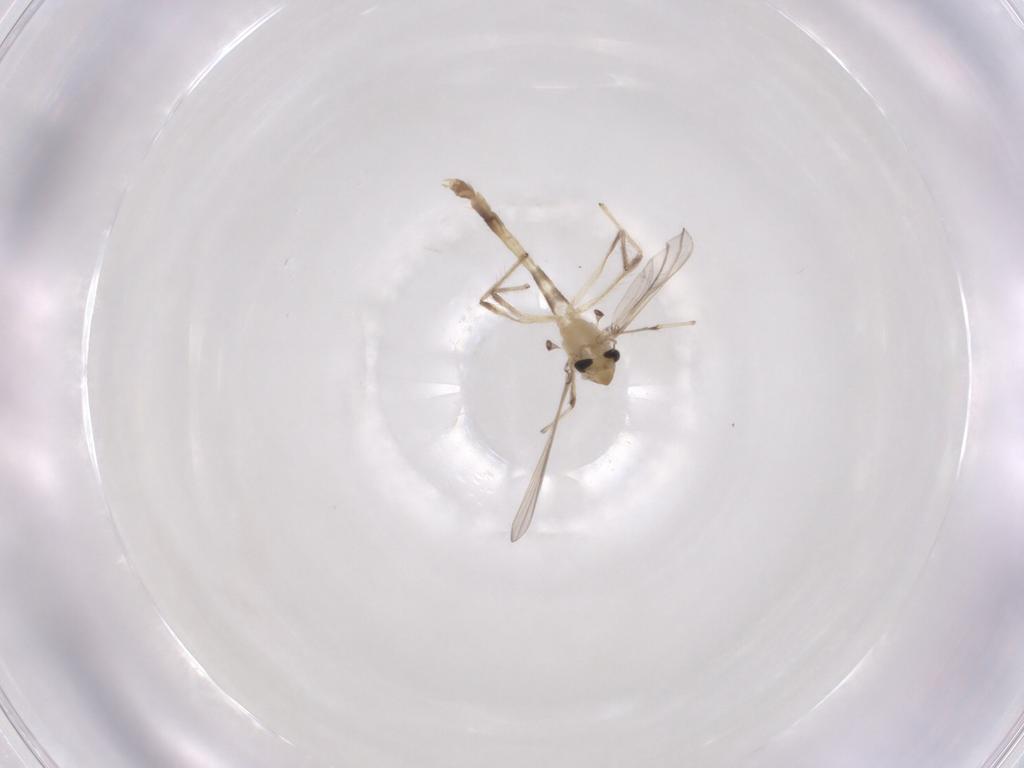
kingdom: Animalia
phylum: Arthropoda
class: Insecta
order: Diptera
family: Chironomidae
